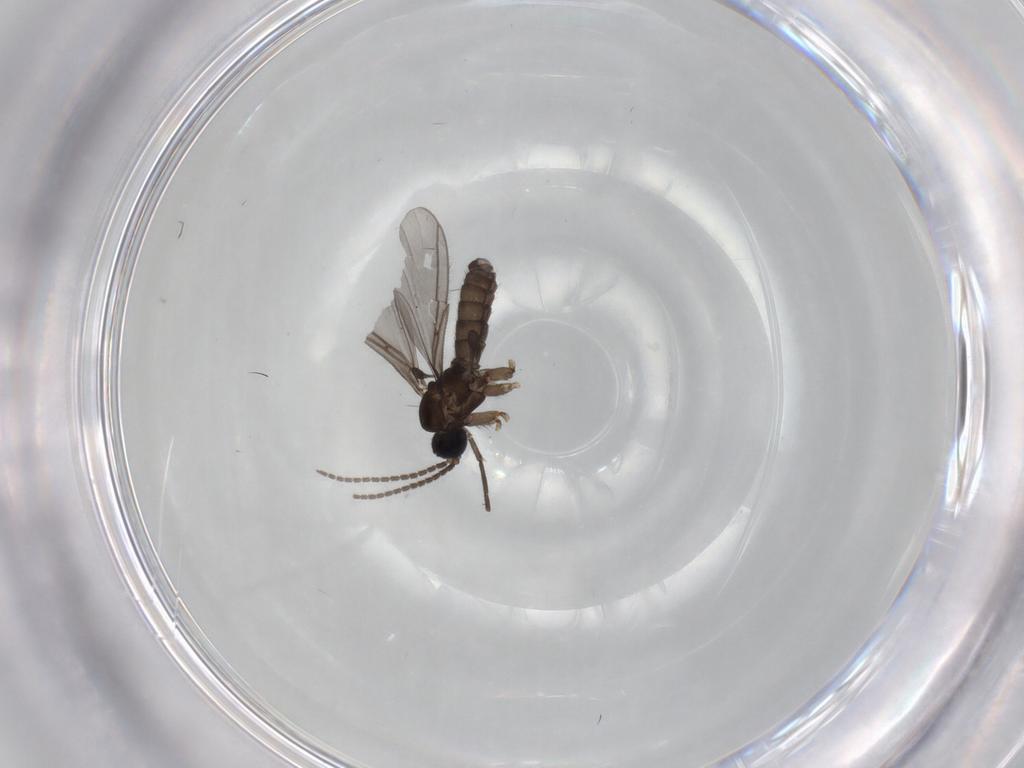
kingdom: Animalia
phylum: Arthropoda
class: Insecta
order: Diptera
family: Sciaridae
